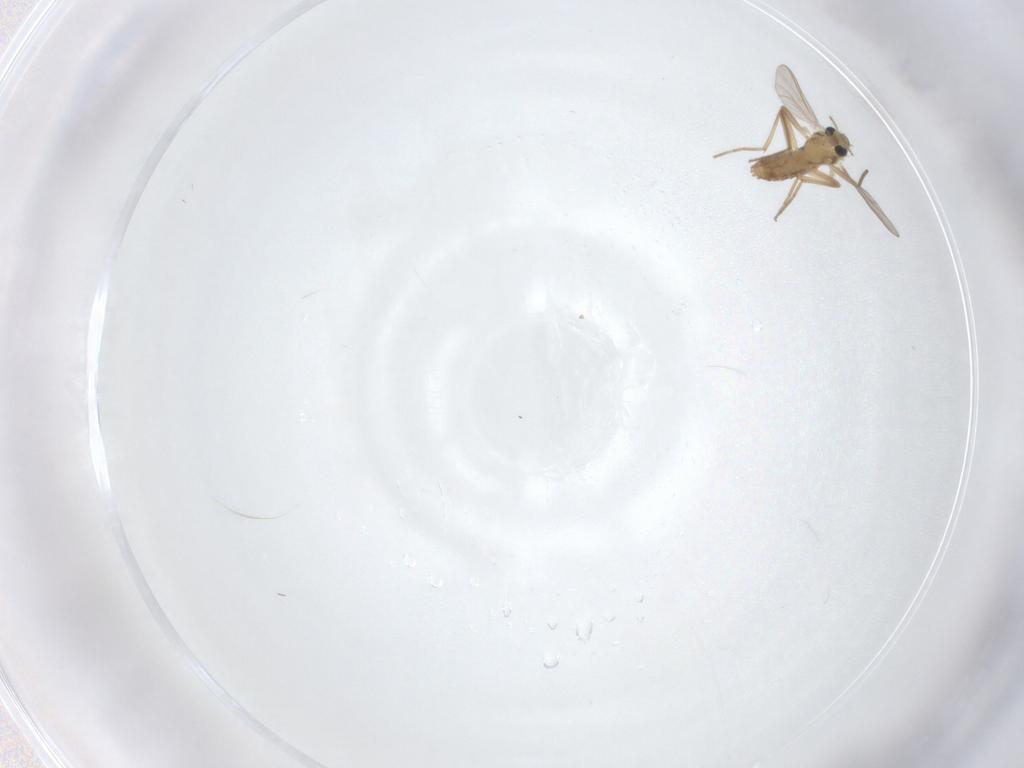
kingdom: Animalia
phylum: Arthropoda
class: Insecta
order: Diptera
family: Chironomidae
